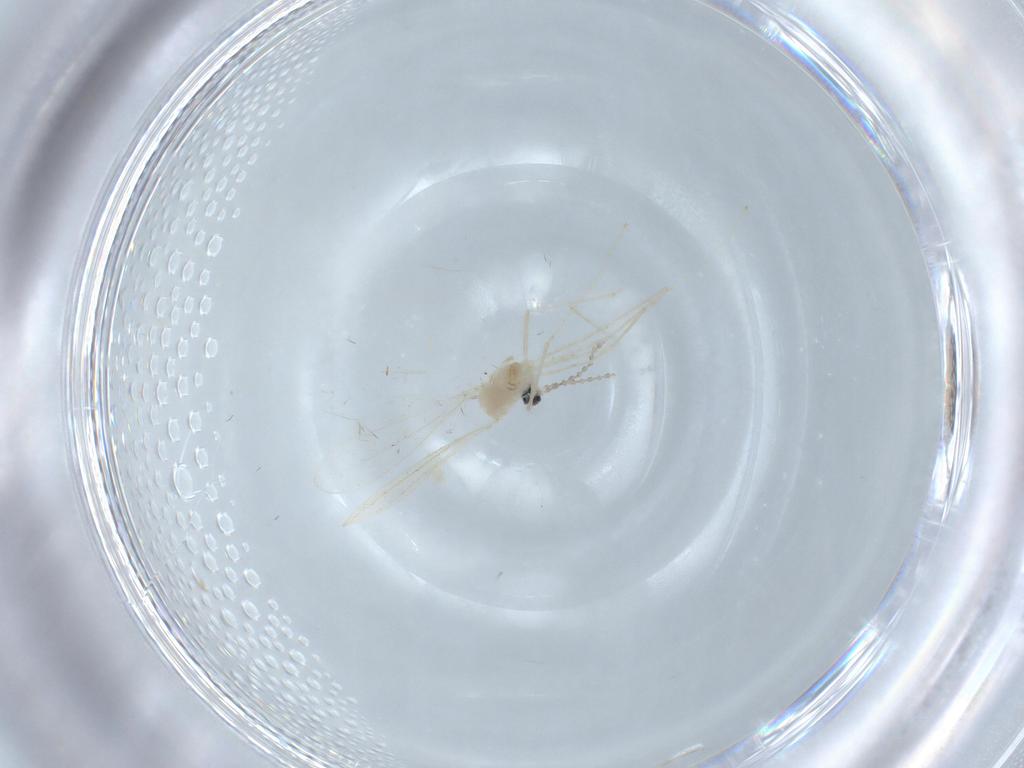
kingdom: Animalia
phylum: Arthropoda
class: Insecta
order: Diptera
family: Cecidomyiidae
